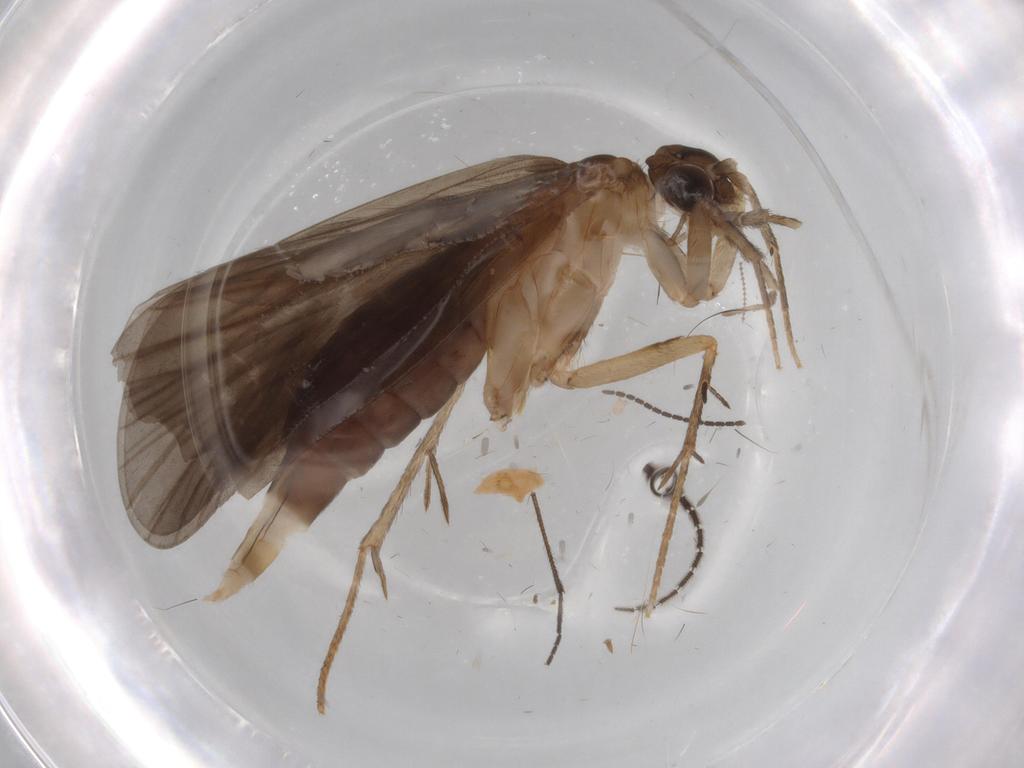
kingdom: Animalia
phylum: Arthropoda
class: Insecta
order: Trichoptera
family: Philopotamidae
